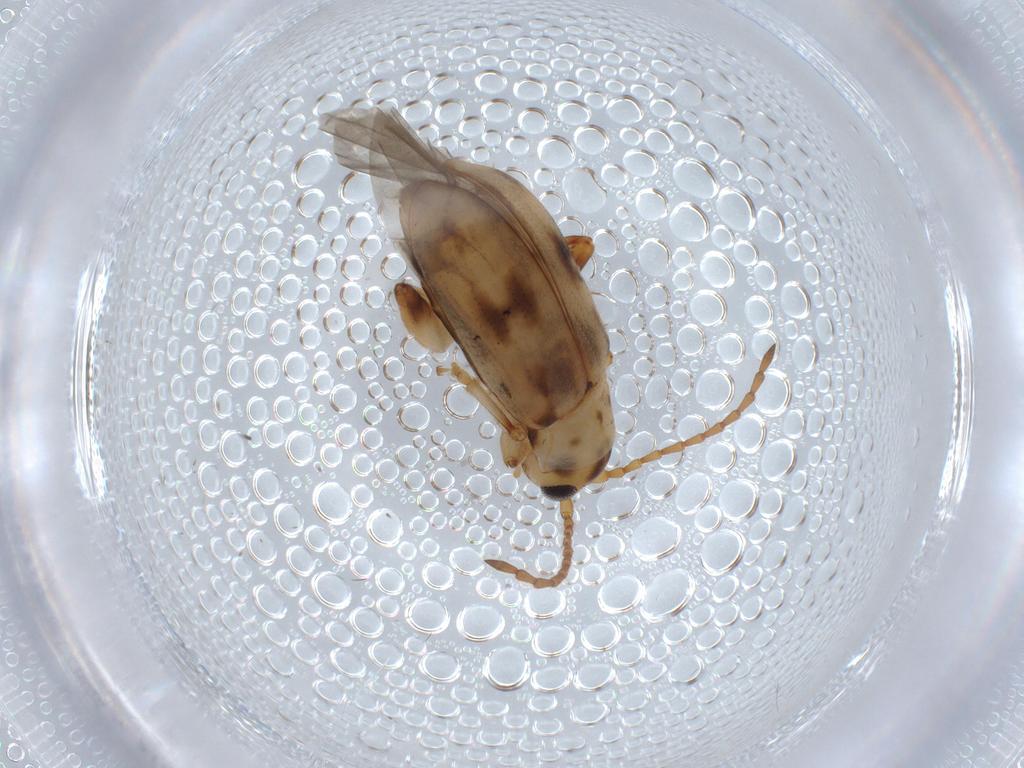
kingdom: Animalia
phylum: Arthropoda
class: Insecta
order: Coleoptera
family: Chrysomelidae
